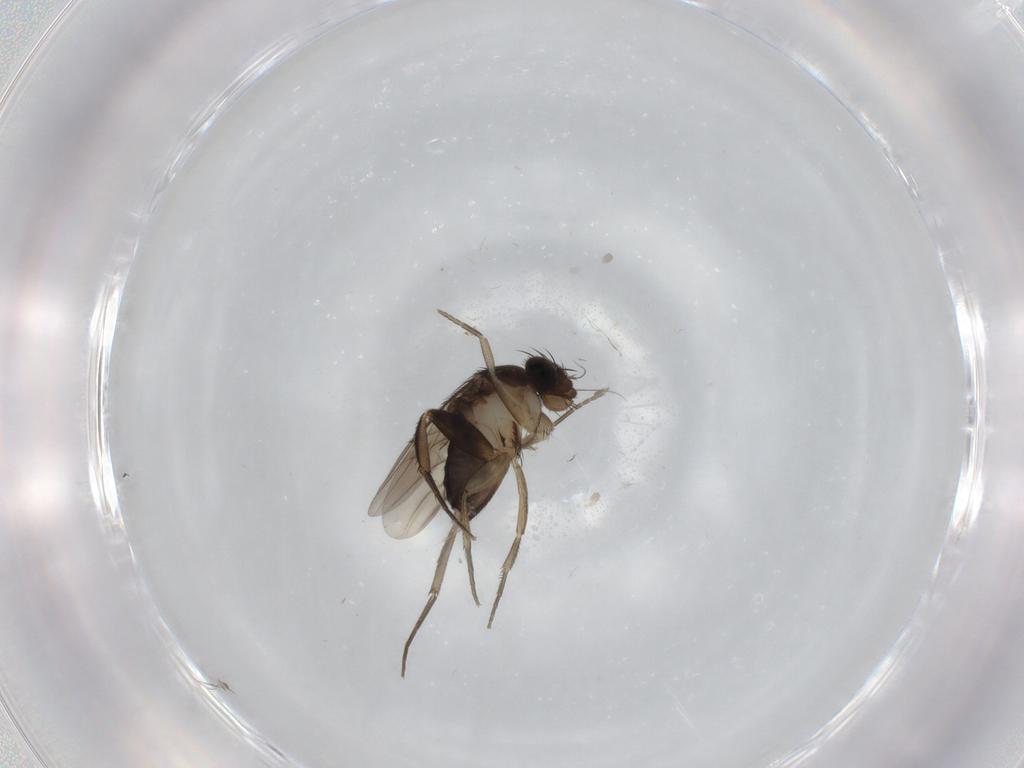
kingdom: Animalia
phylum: Arthropoda
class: Insecta
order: Diptera
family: Phoridae
